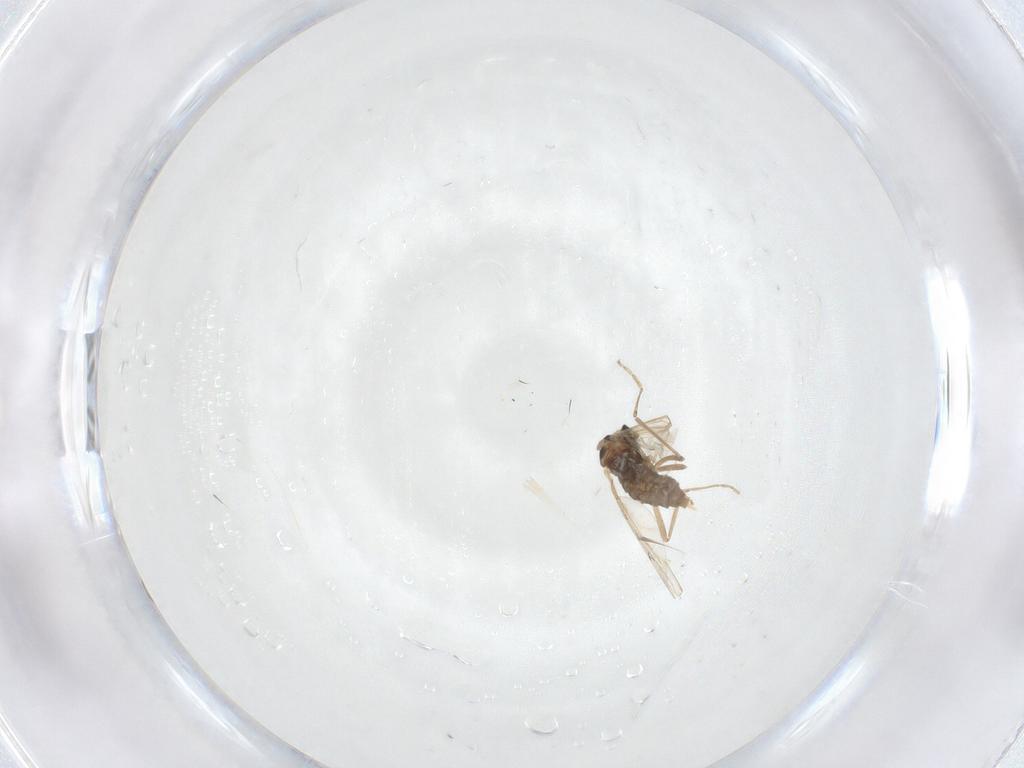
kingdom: Animalia
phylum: Arthropoda
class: Insecta
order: Diptera
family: Cecidomyiidae
